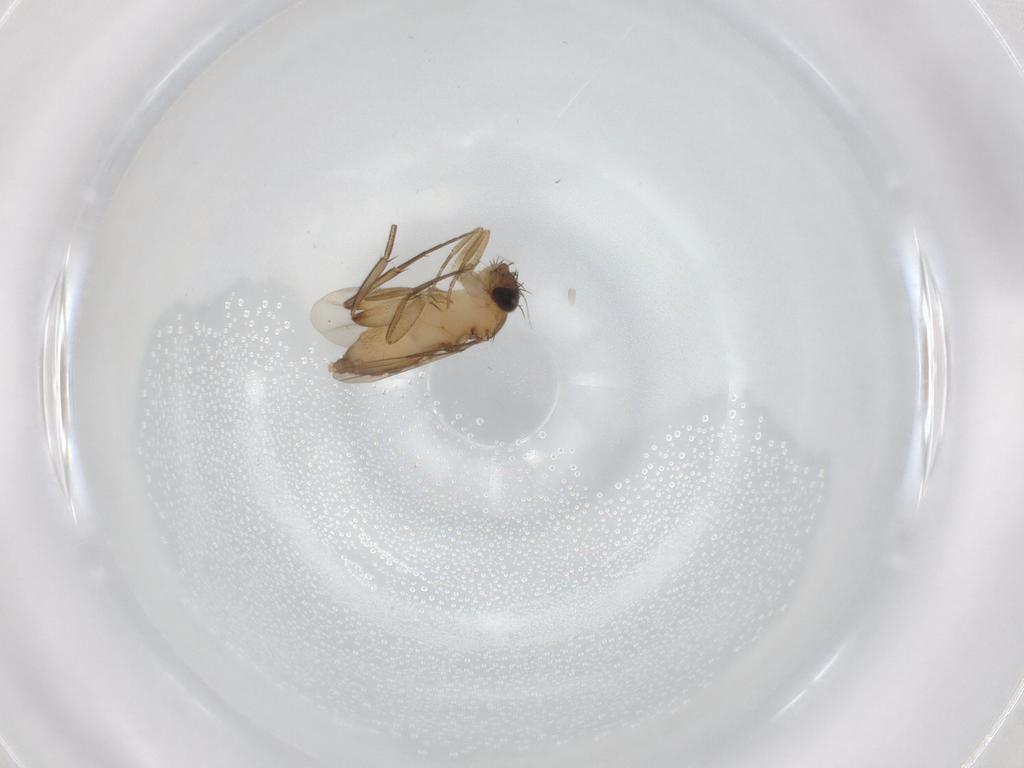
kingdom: Animalia
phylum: Arthropoda
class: Insecta
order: Diptera
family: Phoridae
